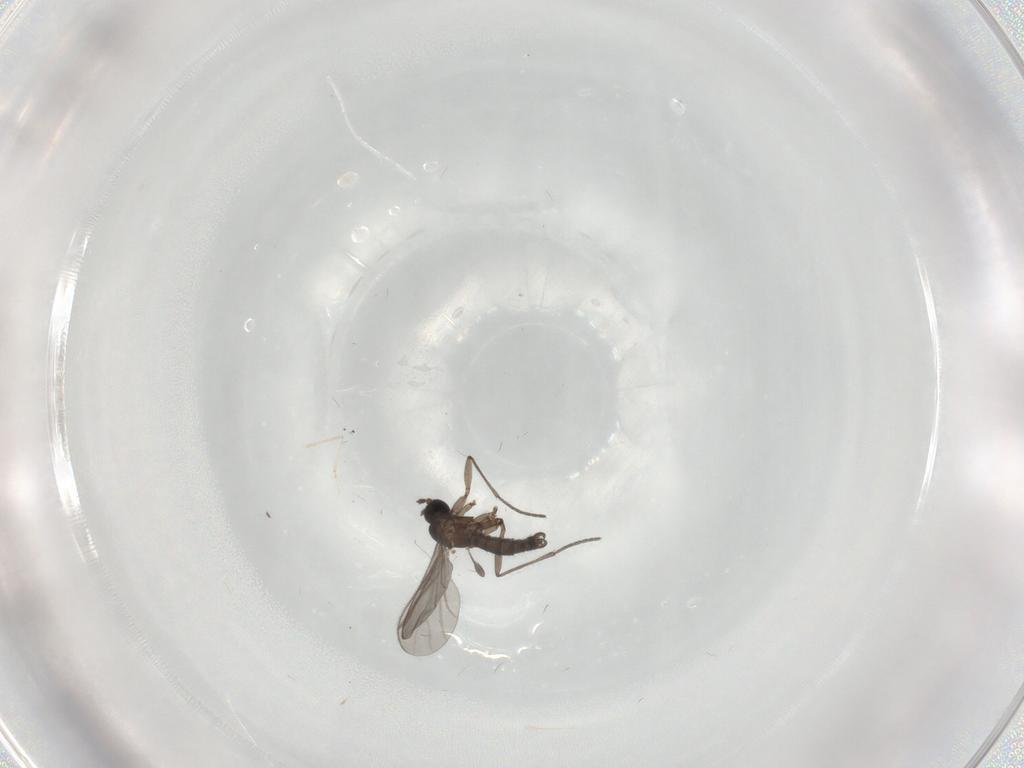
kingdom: Animalia
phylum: Arthropoda
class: Insecta
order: Diptera
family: Cecidomyiidae
